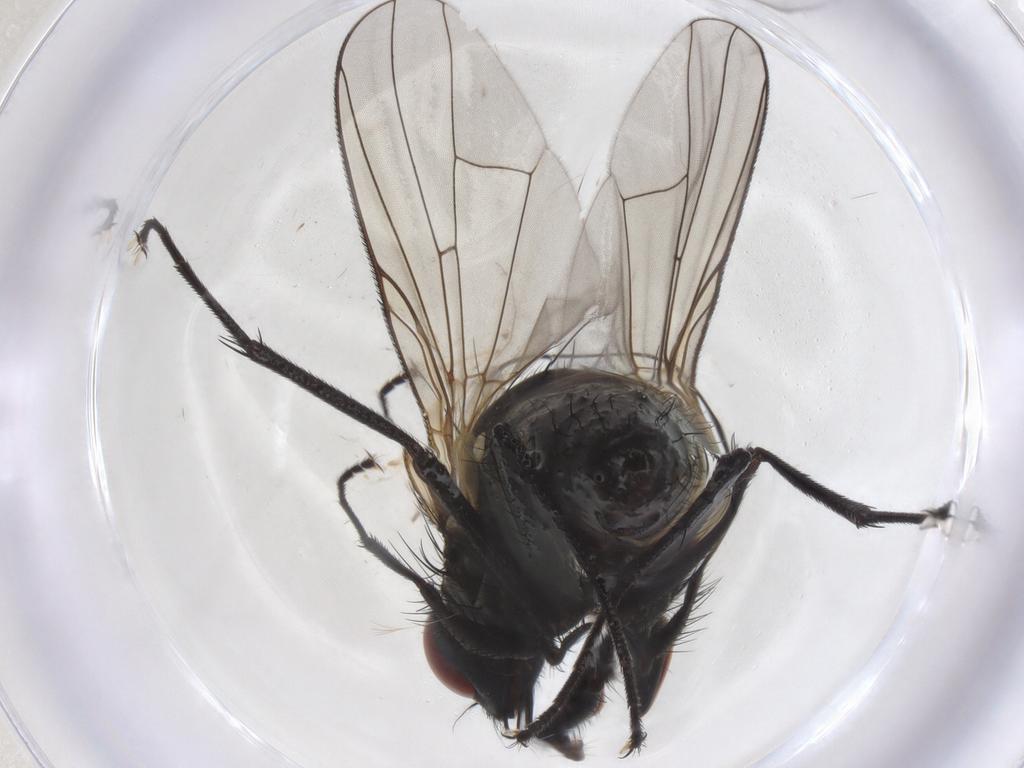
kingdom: Animalia
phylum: Arthropoda
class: Insecta
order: Diptera
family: Muscidae
